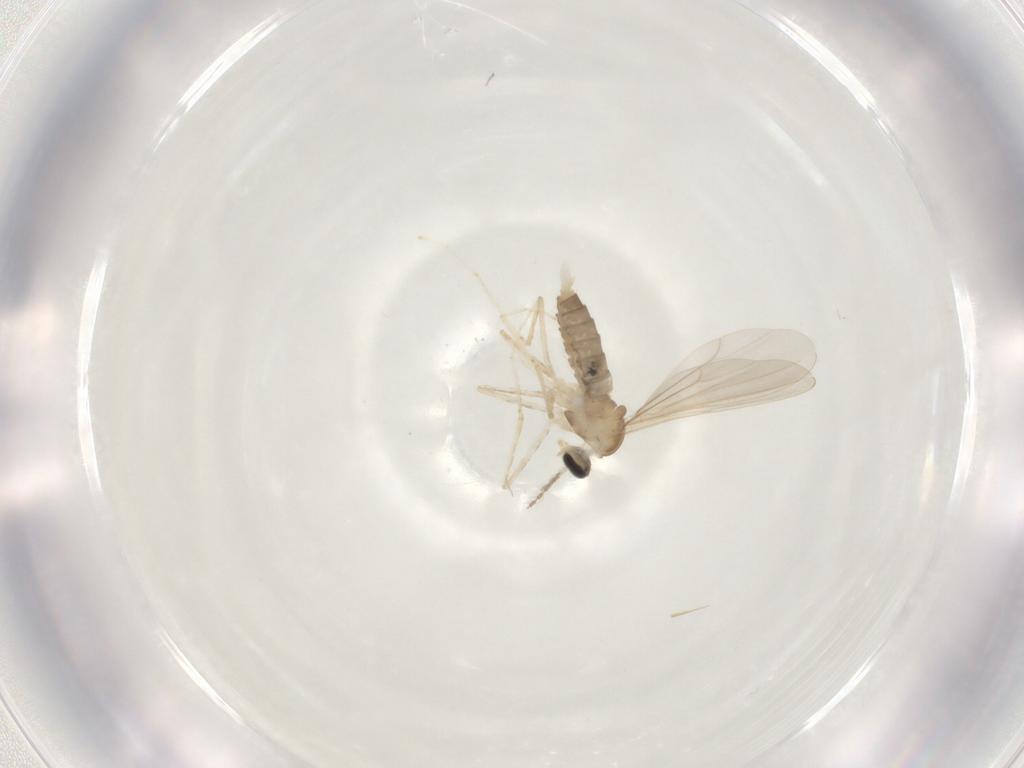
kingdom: Animalia
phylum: Arthropoda
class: Insecta
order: Diptera
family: Cecidomyiidae
